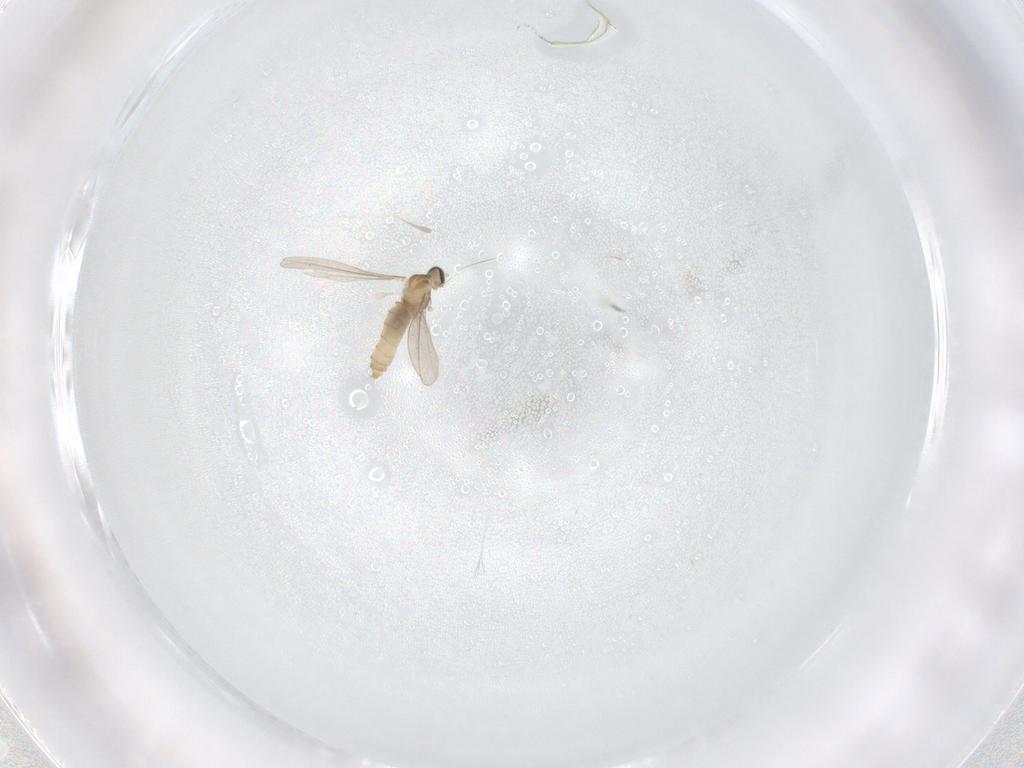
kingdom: Animalia
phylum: Arthropoda
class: Insecta
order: Diptera
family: Cecidomyiidae
